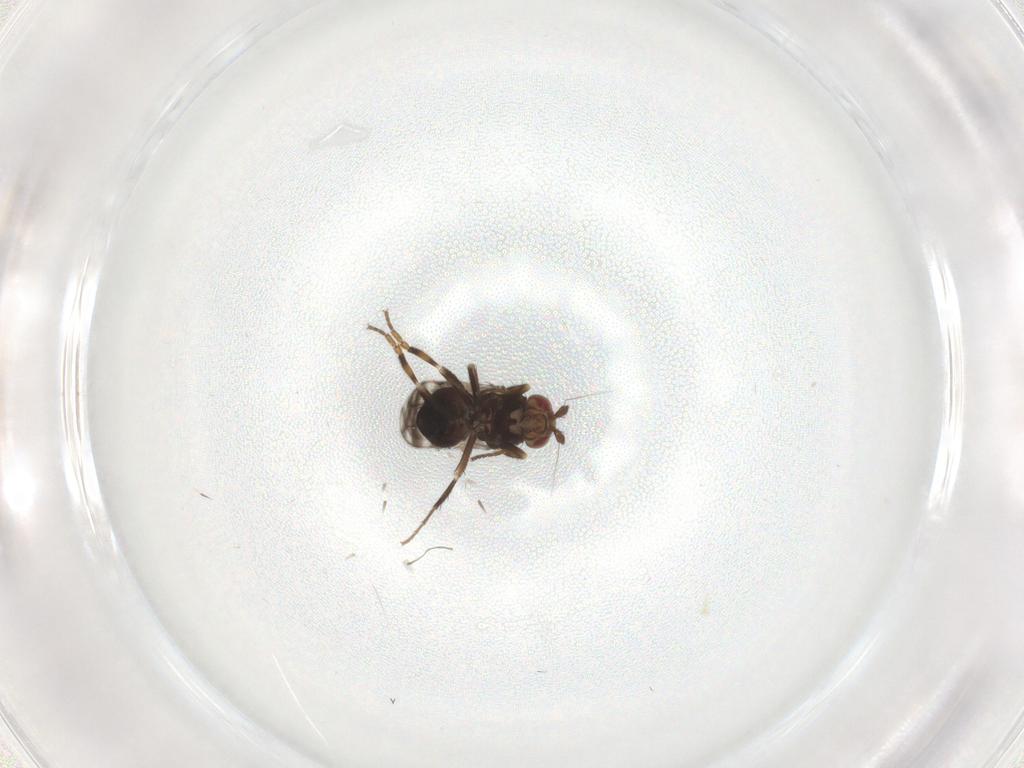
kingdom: Animalia
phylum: Arthropoda
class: Insecta
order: Diptera
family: Sphaeroceridae
